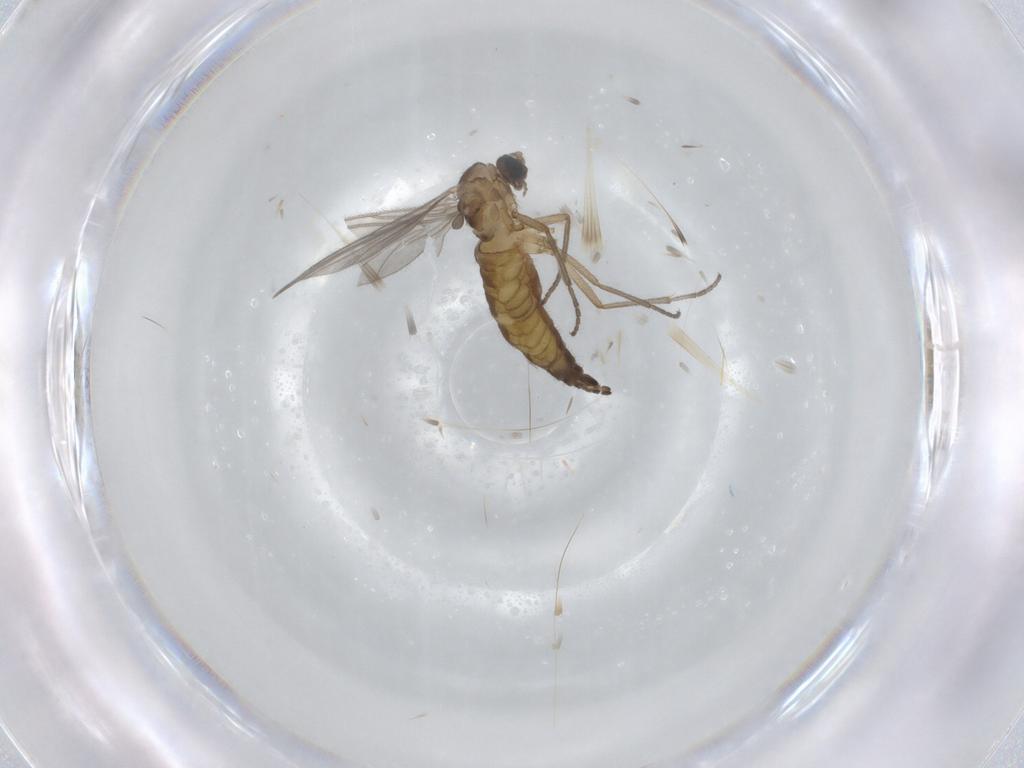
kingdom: Animalia
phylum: Arthropoda
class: Insecta
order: Diptera
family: Sciaridae
